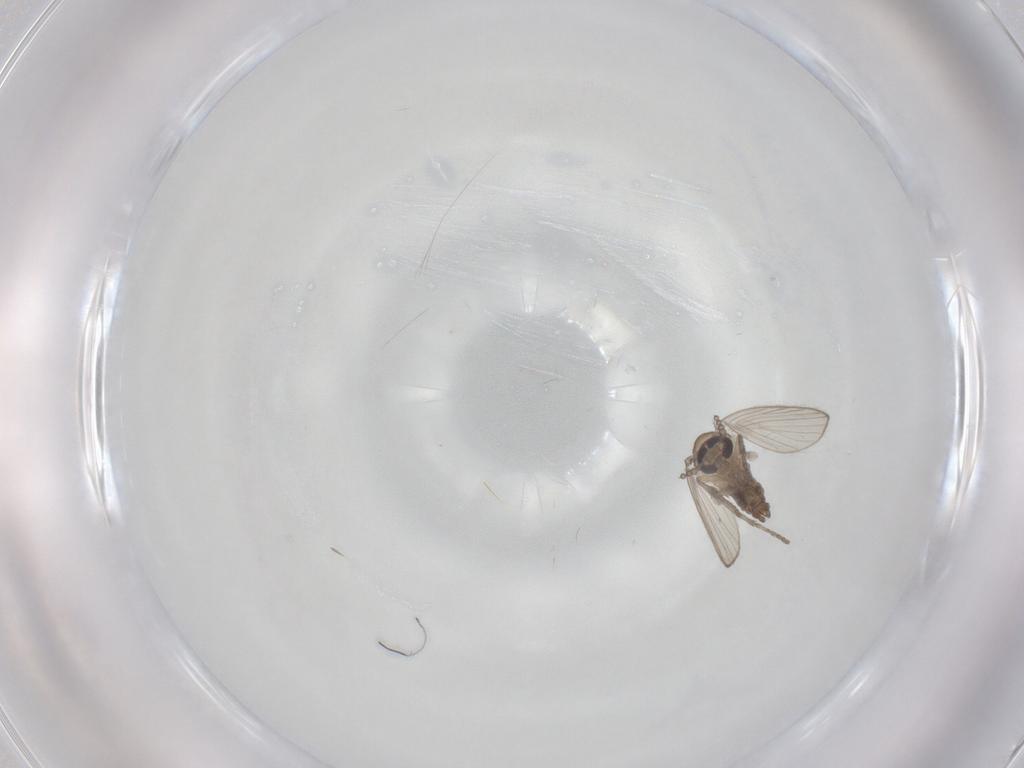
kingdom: Animalia
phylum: Arthropoda
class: Insecta
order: Diptera
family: Psychodidae
